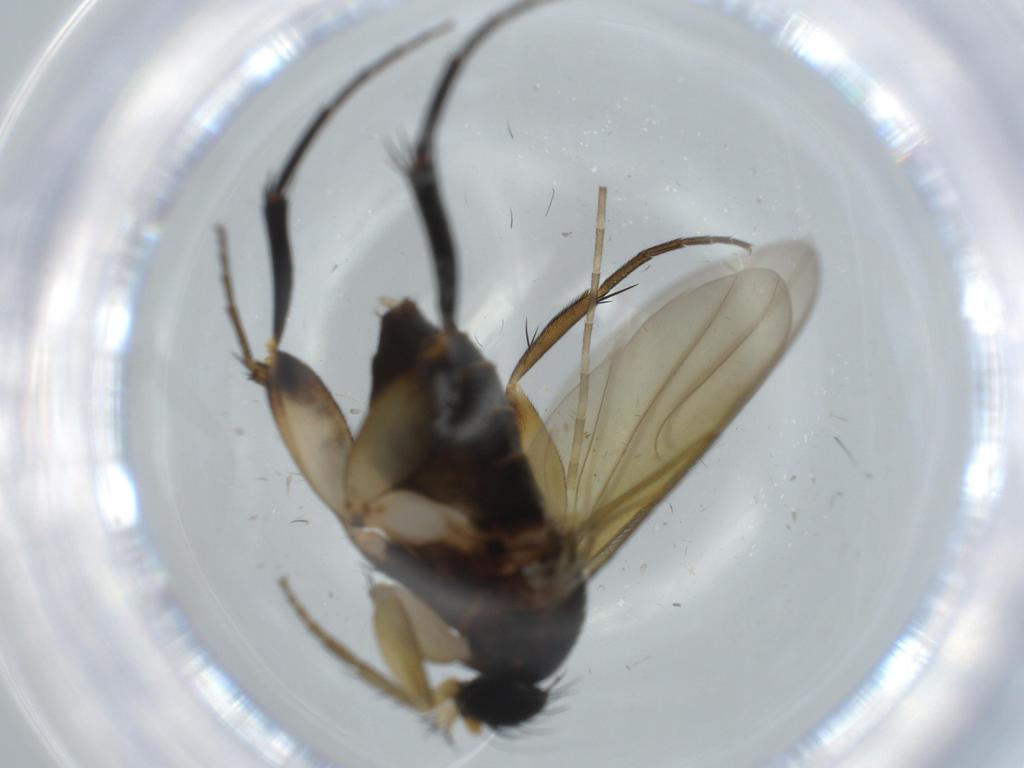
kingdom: Animalia
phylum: Arthropoda
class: Insecta
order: Diptera
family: Phoridae
